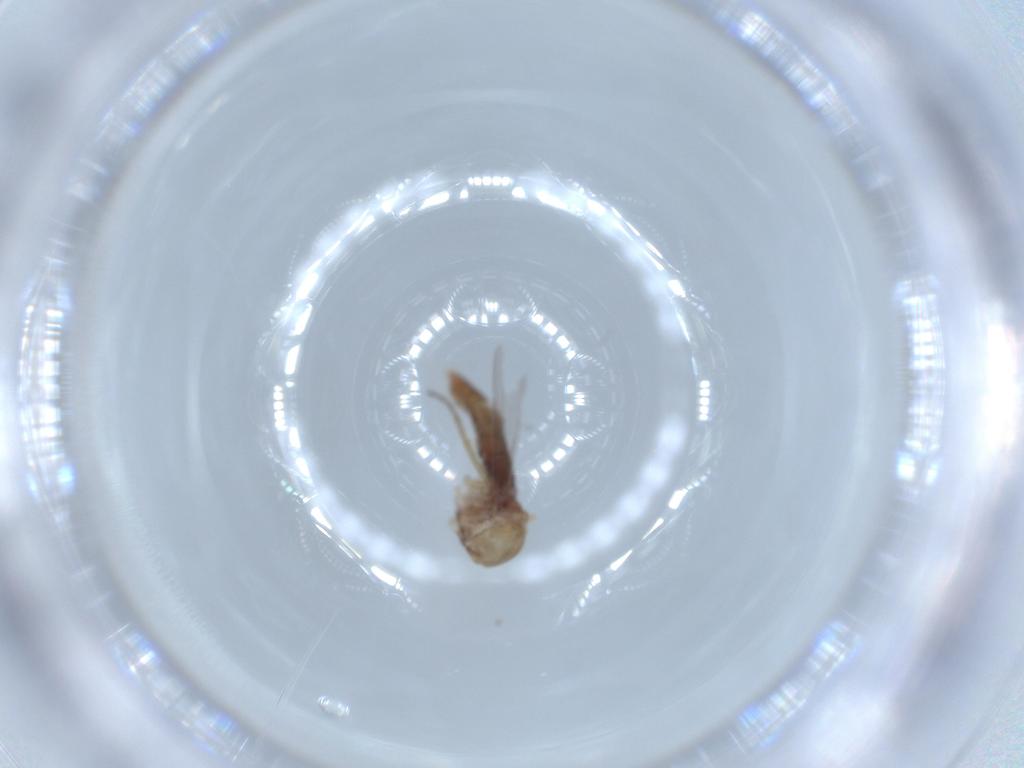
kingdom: Animalia
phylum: Arthropoda
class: Insecta
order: Diptera
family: Ceratopogonidae
